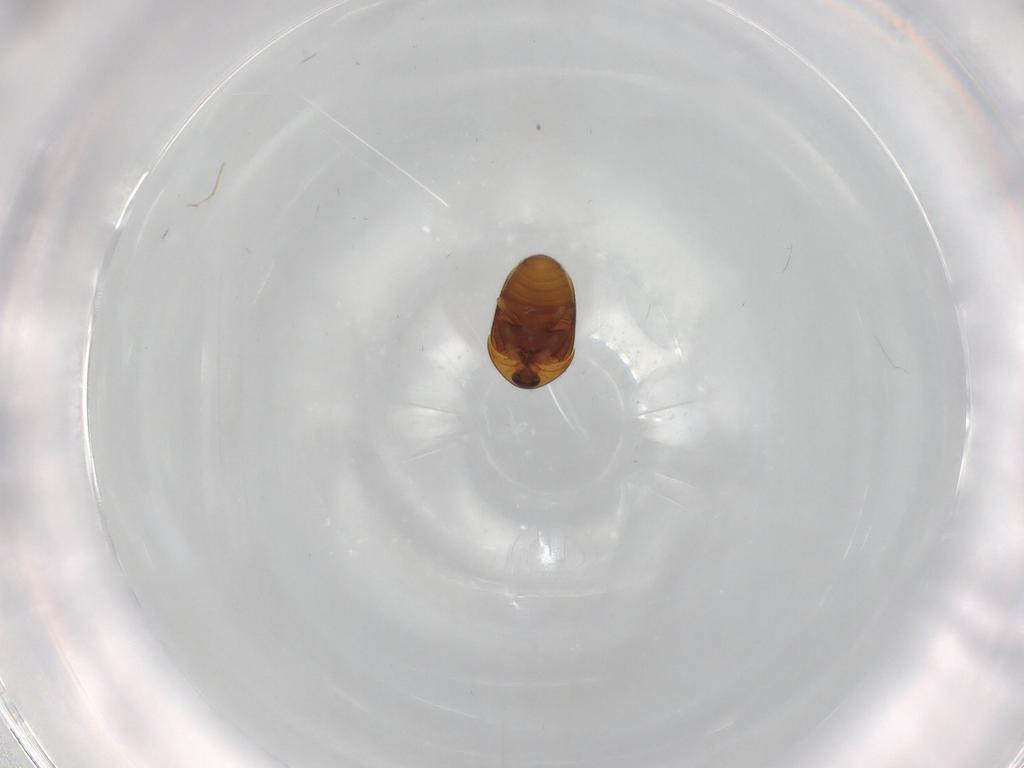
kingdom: Animalia
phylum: Arthropoda
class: Insecta
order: Coleoptera
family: Corylophidae
